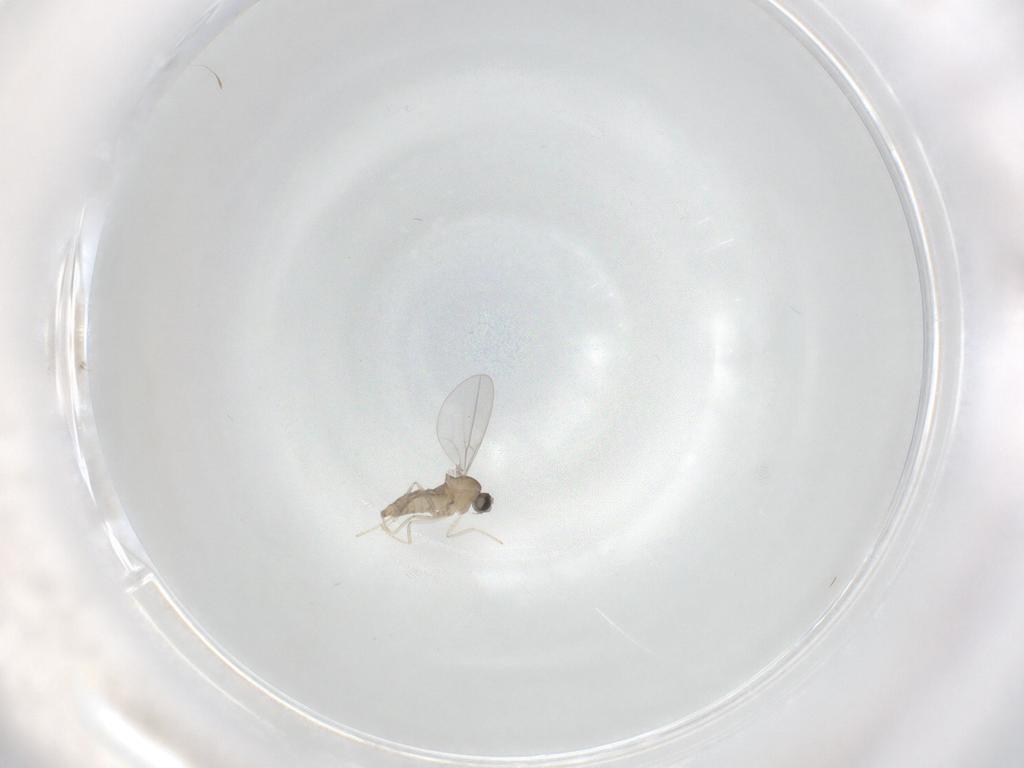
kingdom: Animalia
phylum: Arthropoda
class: Insecta
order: Diptera
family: Cecidomyiidae
